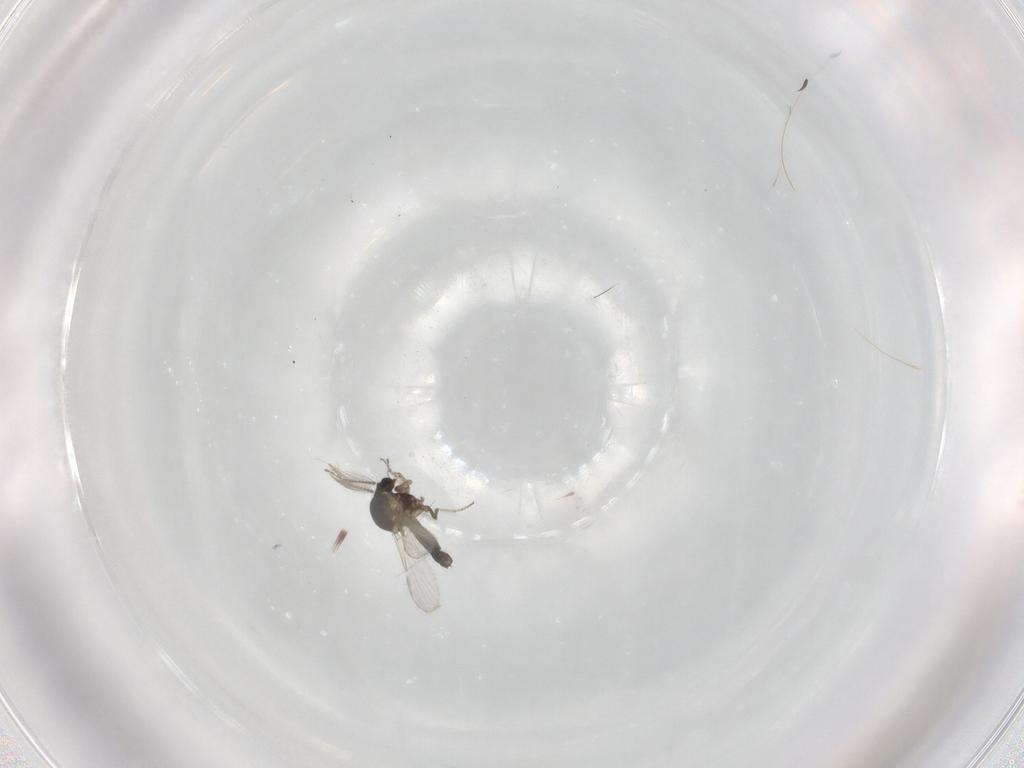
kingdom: Animalia
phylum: Arthropoda
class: Insecta
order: Diptera
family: Ceratopogonidae
